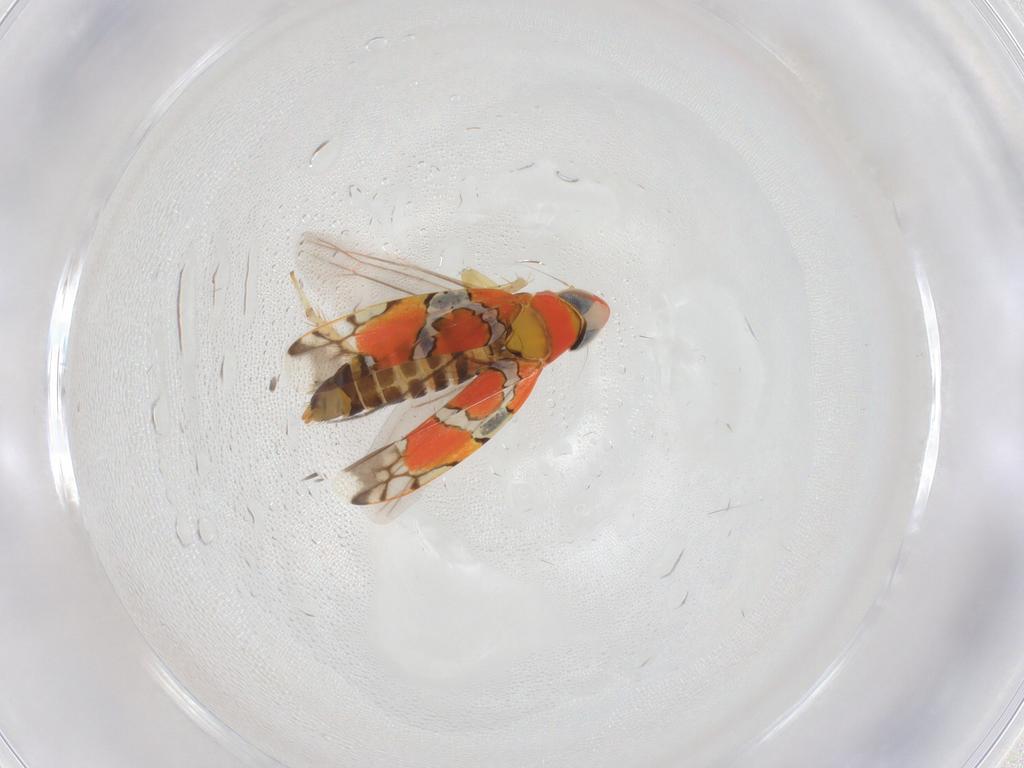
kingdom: Animalia
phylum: Arthropoda
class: Insecta
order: Hemiptera
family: Cicadellidae
